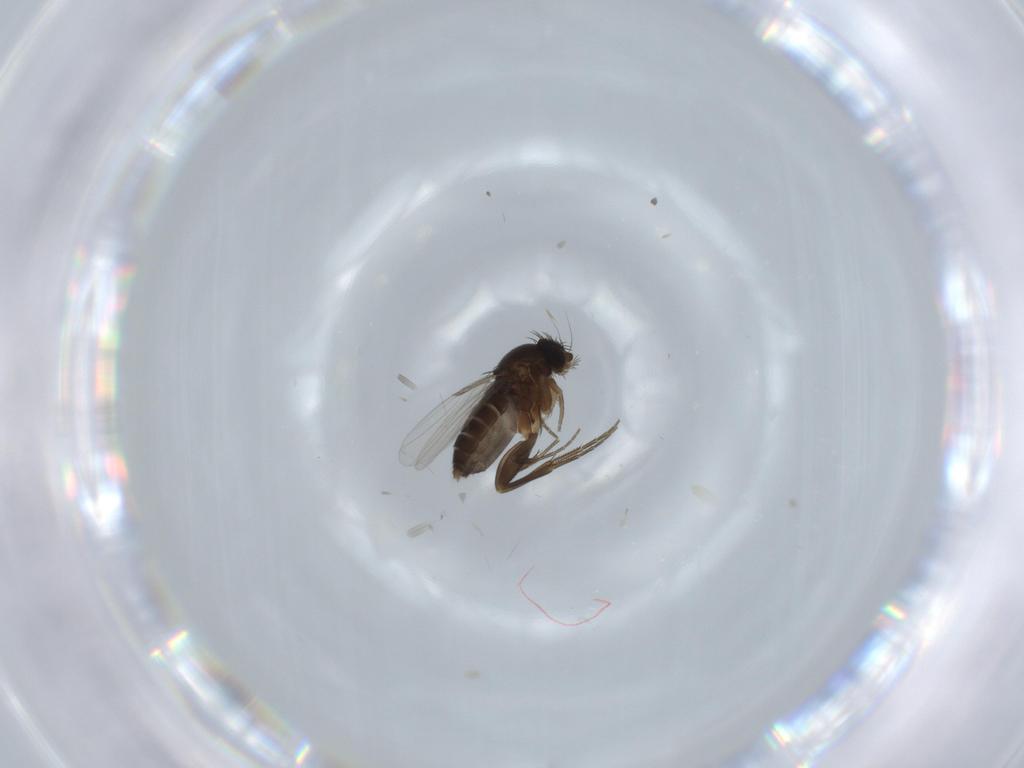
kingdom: Animalia
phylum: Arthropoda
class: Insecta
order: Diptera
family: Phoridae
